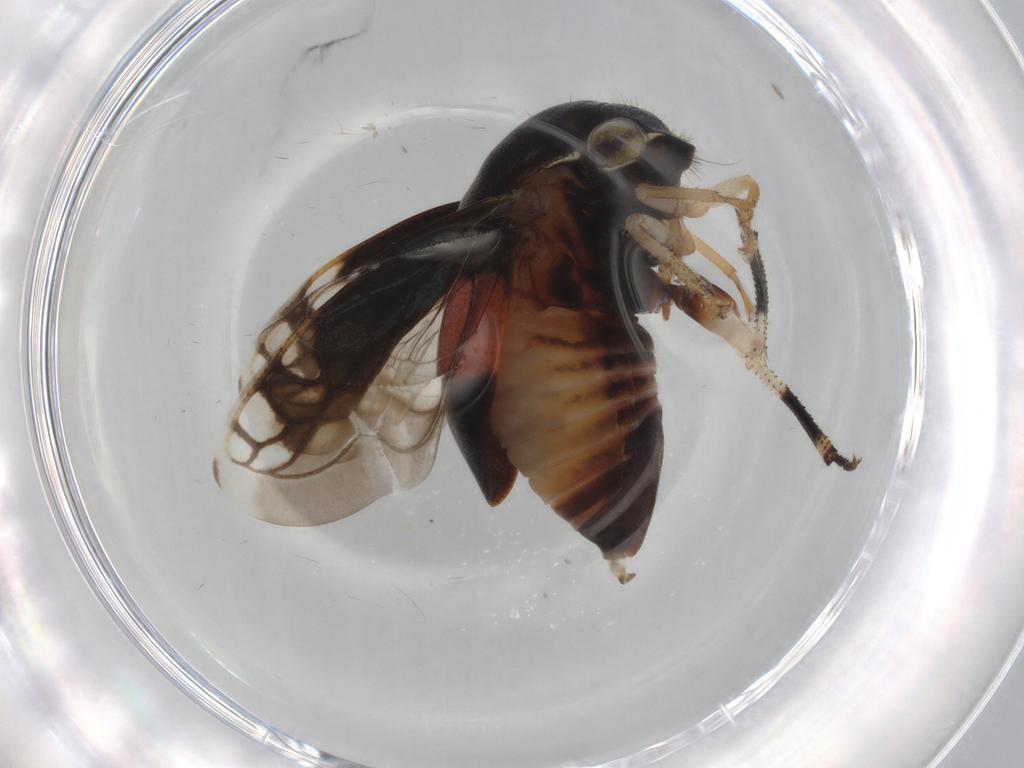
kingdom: Animalia
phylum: Arthropoda
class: Insecta
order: Hemiptera
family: Membracidae
